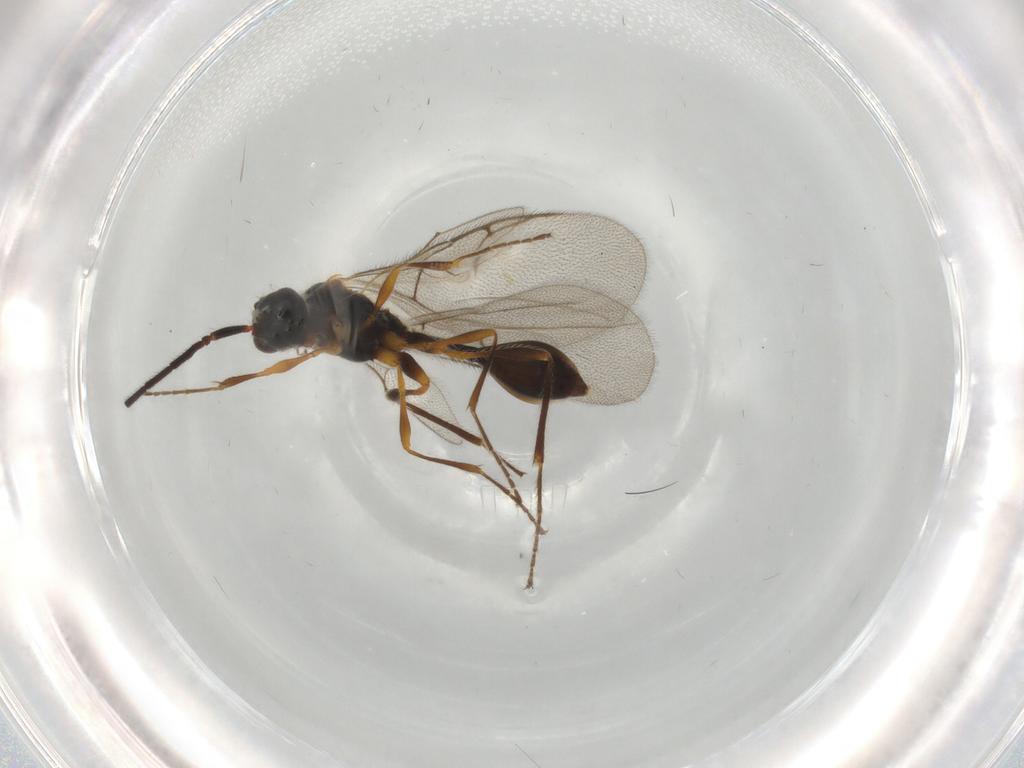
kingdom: Animalia
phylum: Arthropoda
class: Insecta
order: Hymenoptera
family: Diapriidae
